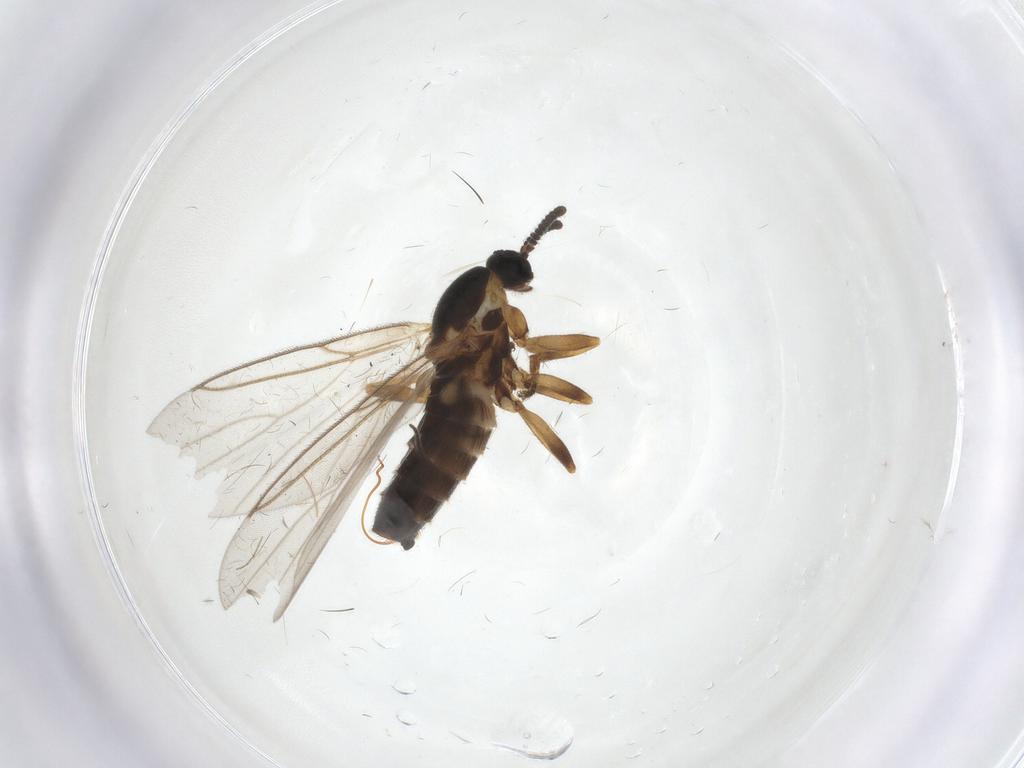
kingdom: Animalia
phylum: Arthropoda
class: Insecta
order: Diptera
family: Scatopsidae
